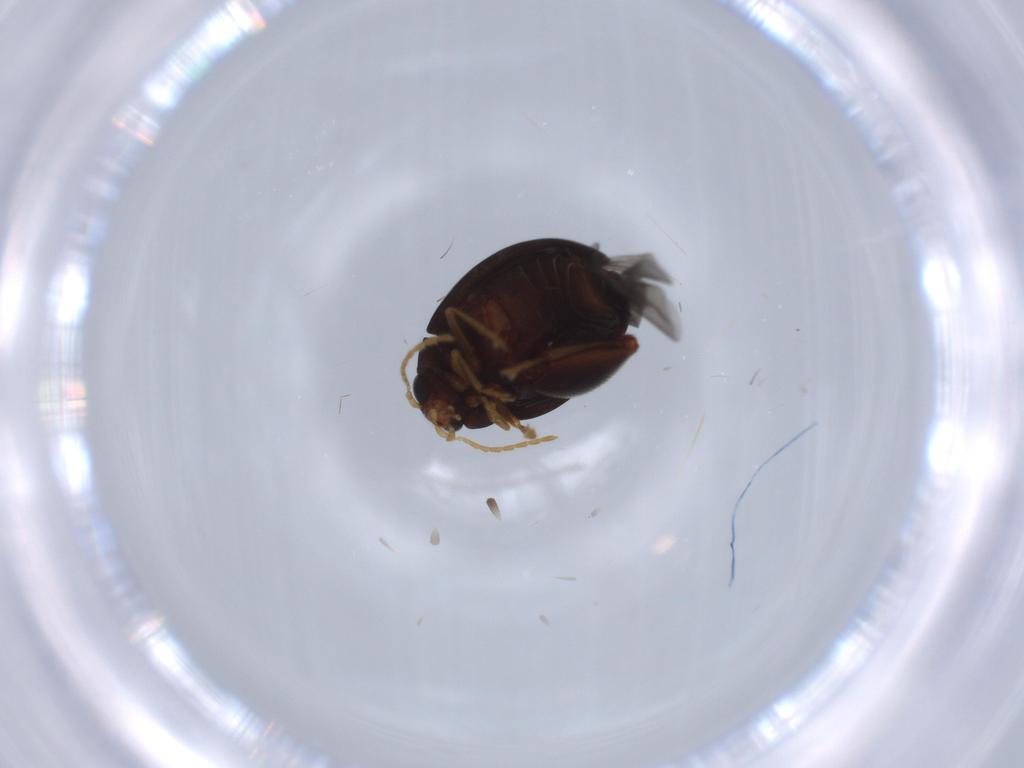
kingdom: Animalia
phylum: Arthropoda
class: Insecta
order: Coleoptera
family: Chrysomelidae
